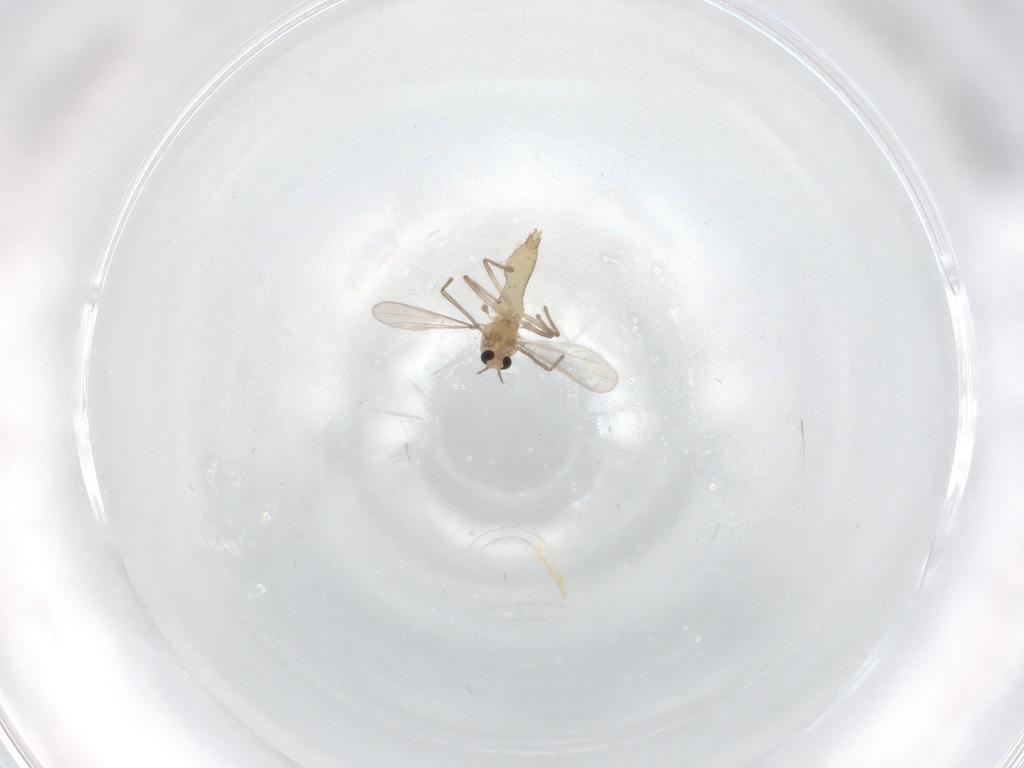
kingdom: Animalia
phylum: Arthropoda
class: Insecta
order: Diptera
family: Chironomidae
